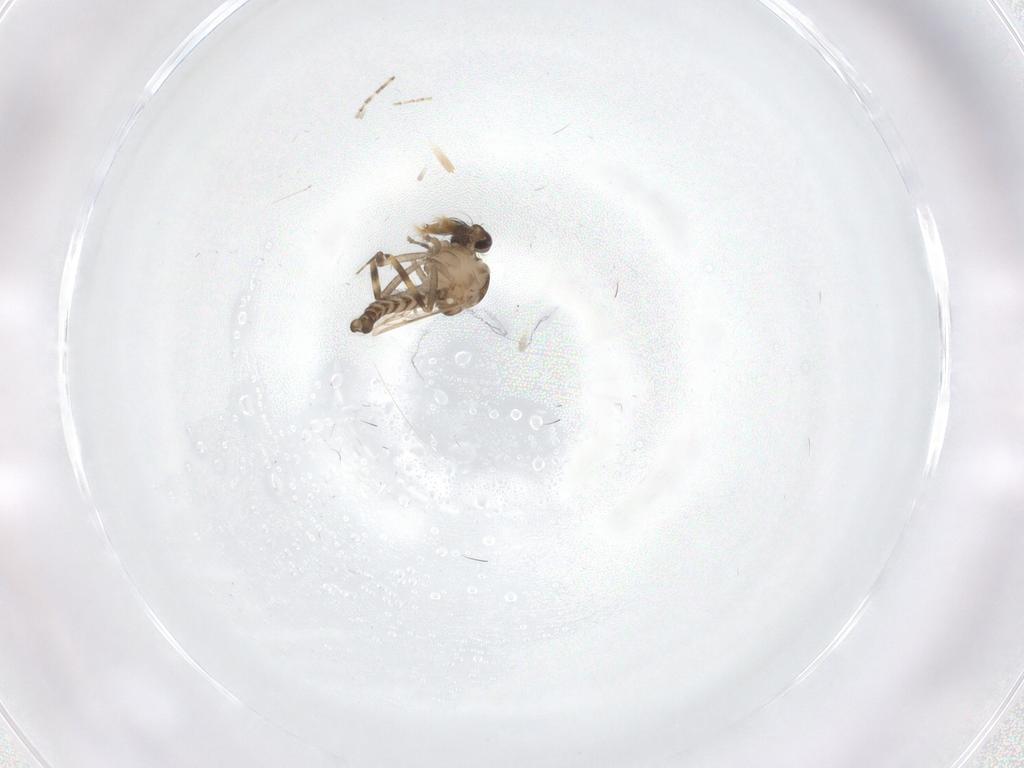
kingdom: Animalia
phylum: Arthropoda
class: Insecta
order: Diptera
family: Ceratopogonidae
